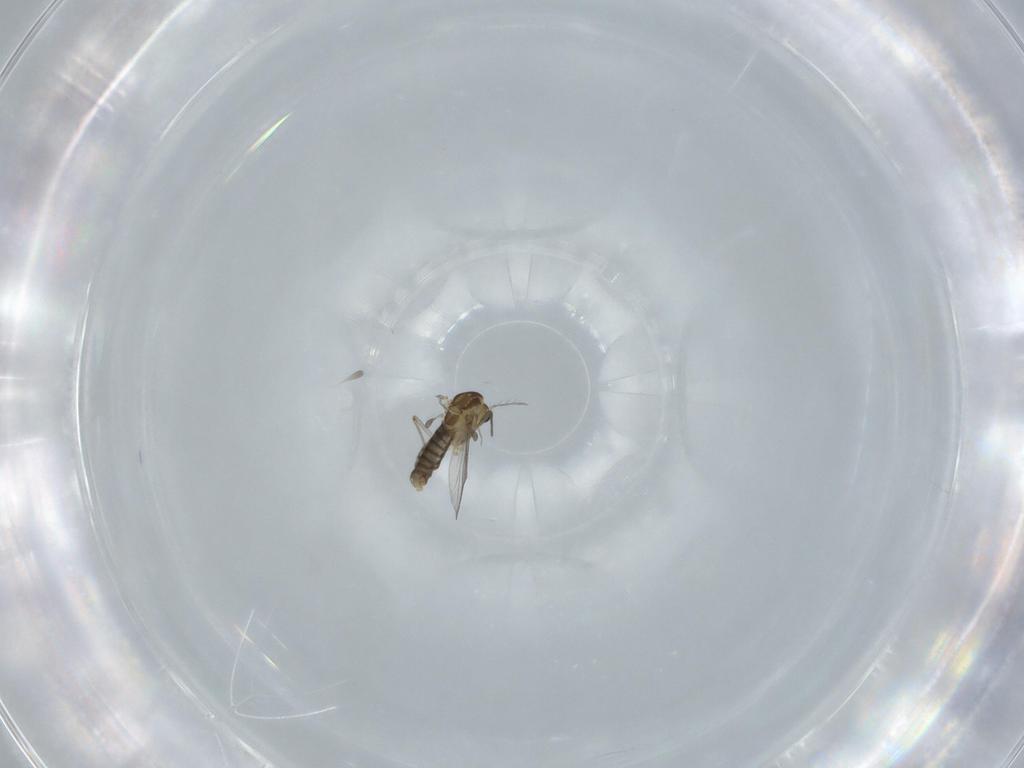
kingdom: Animalia
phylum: Arthropoda
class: Insecta
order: Diptera
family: Chironomidae
